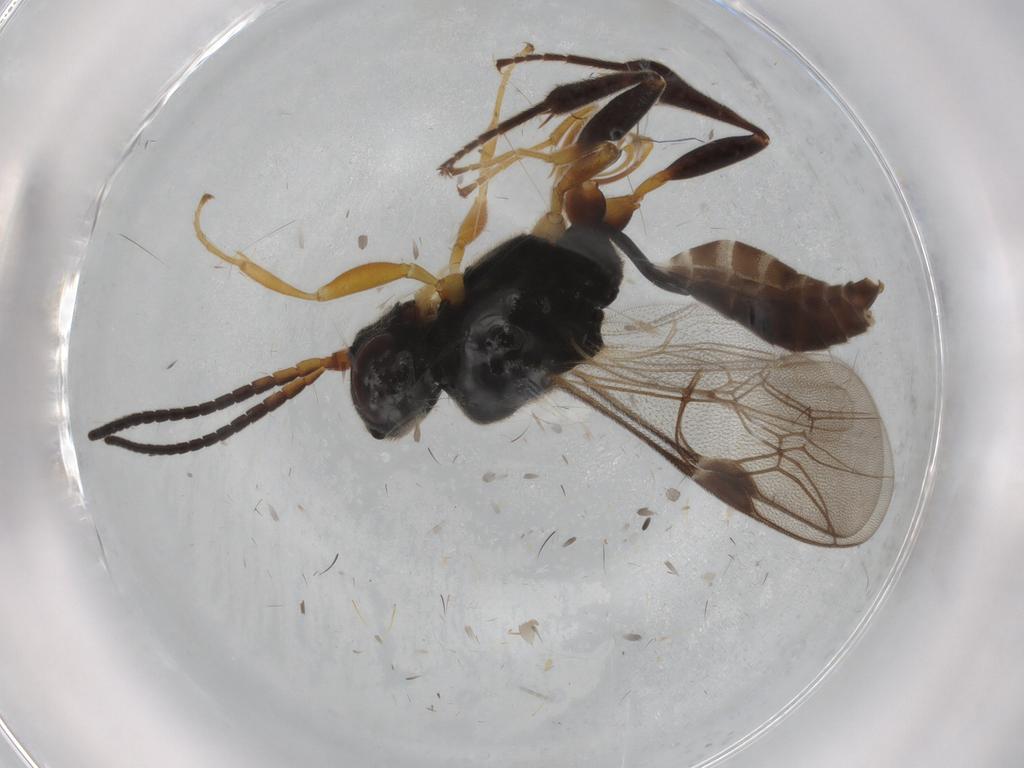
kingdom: Animalia
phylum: Arthropoda
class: Insecta
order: Hymenoptera
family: Ichneumonidae
